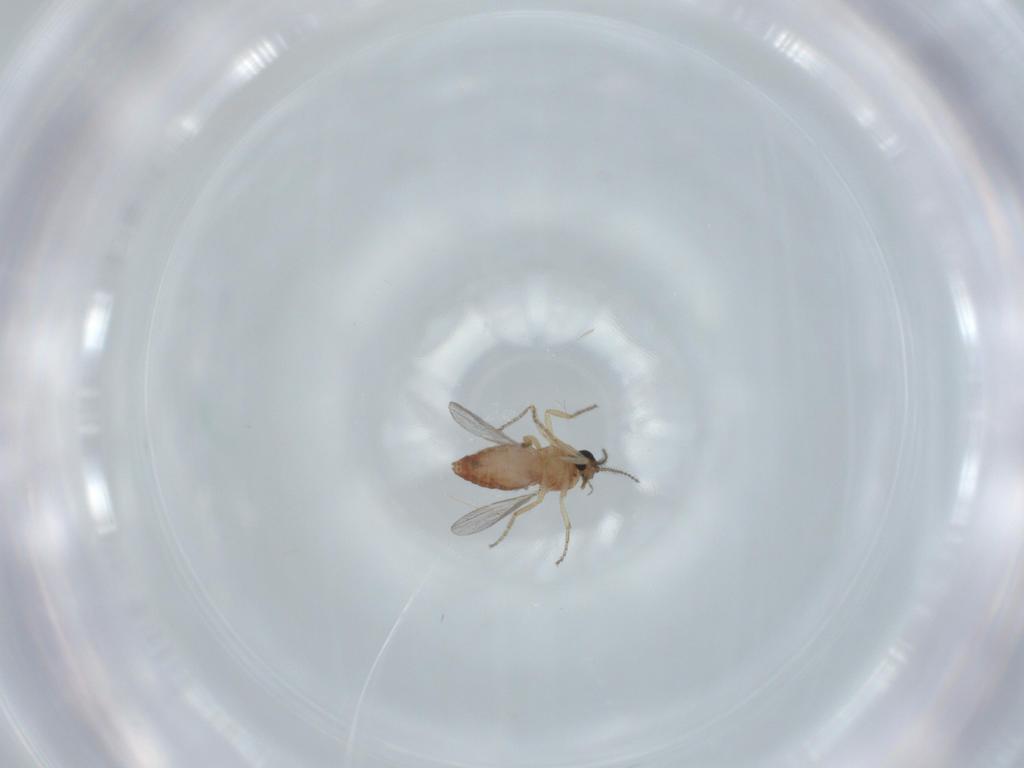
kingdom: Animalia
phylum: Arthropoda
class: Insecta
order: Diptera
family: Ceratopogonidae
